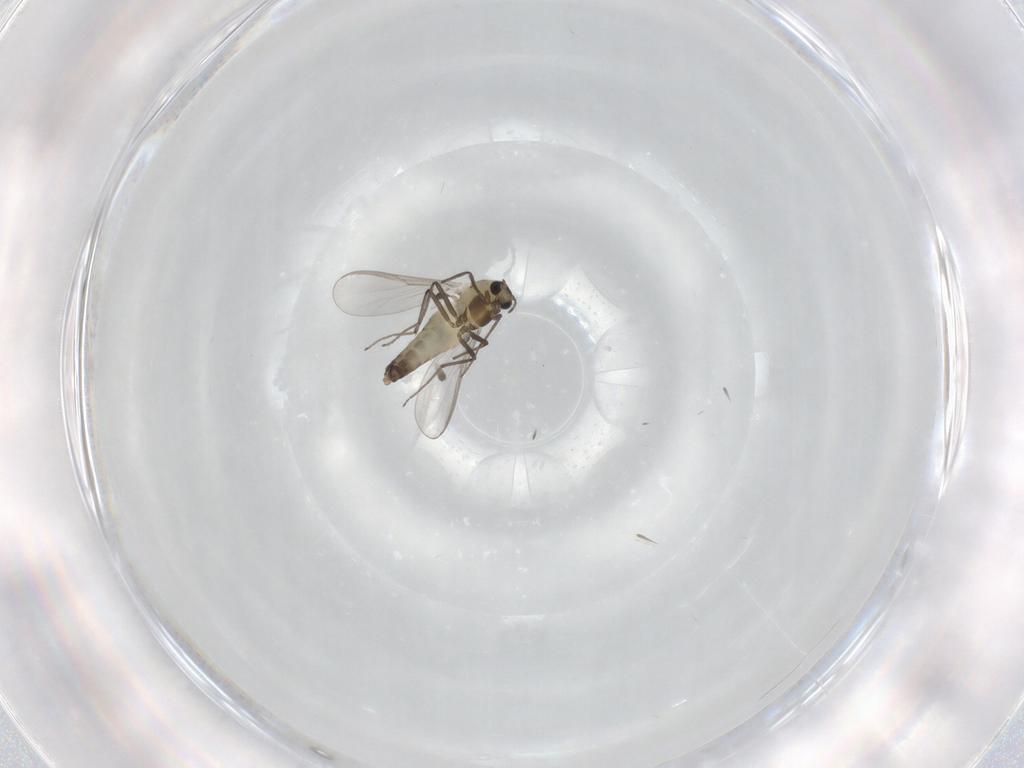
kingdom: Animalia
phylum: Arthropoda
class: Insecta
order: Diptera
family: Chironomidae
